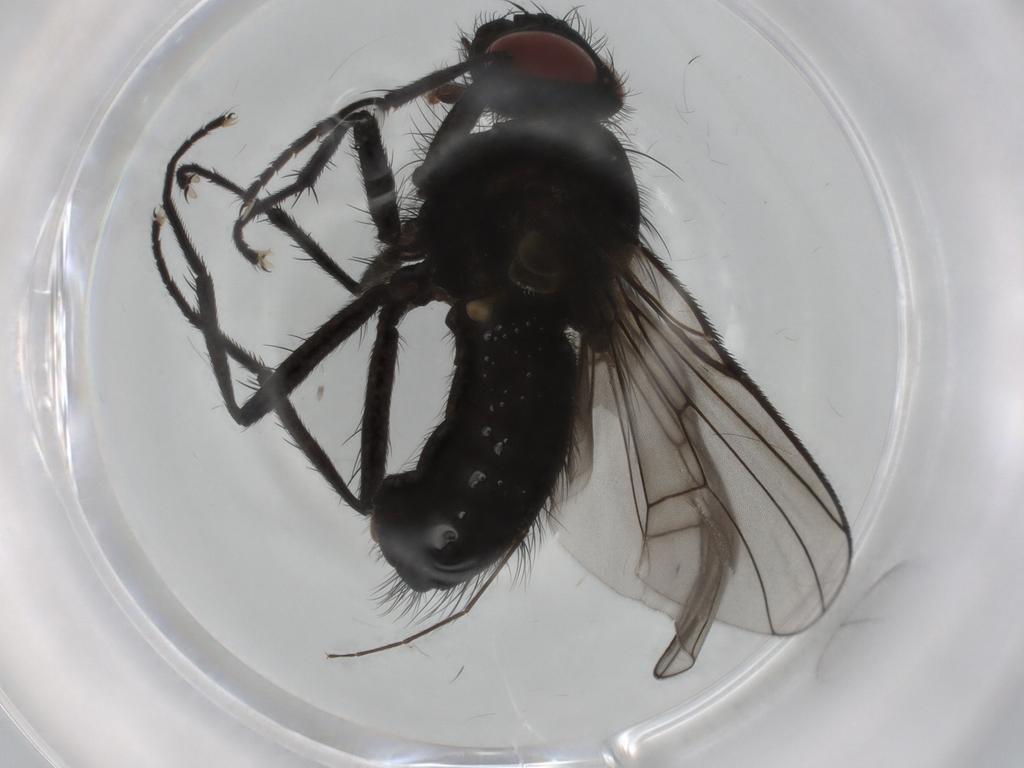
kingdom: Animalia
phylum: Arthropoda
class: Insecta
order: Diptera
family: Muscidae
